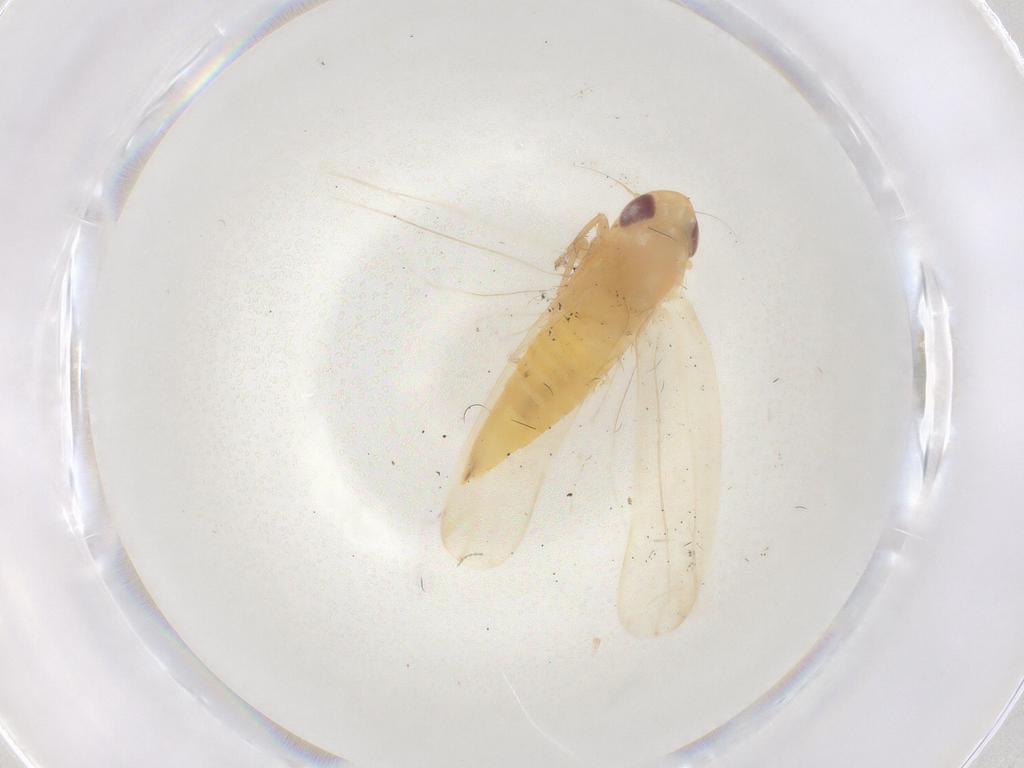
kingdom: Animalia
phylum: Arthropoda
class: Insecta
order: Hemiptera
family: Cicadellidae
